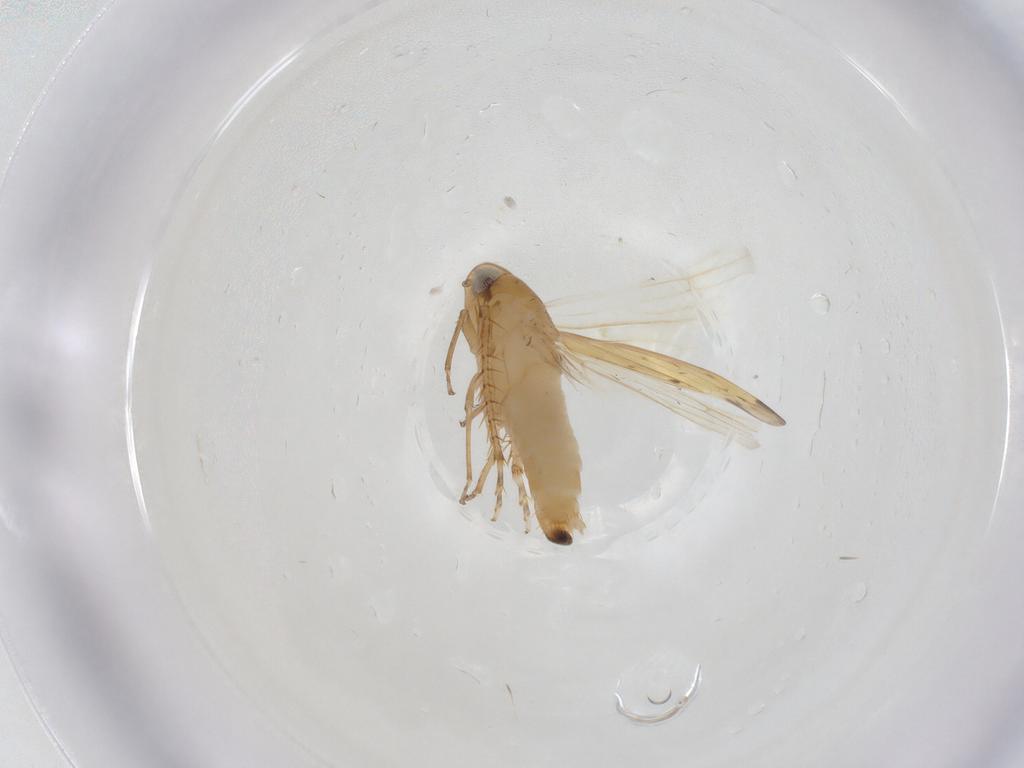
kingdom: Animalia
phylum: Arthropoda
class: Insecta
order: Hemiptera
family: Cicadellidae
